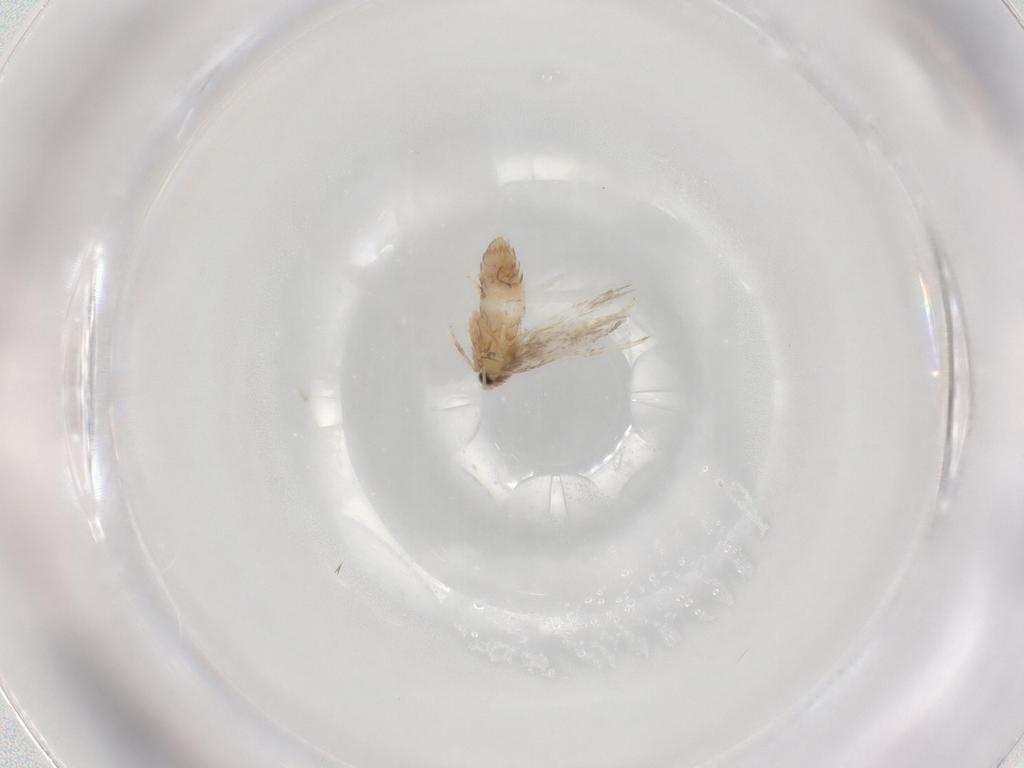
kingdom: Animalia
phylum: Arthropoda
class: Insecta
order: Lepidoptera
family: Nepticulidae
